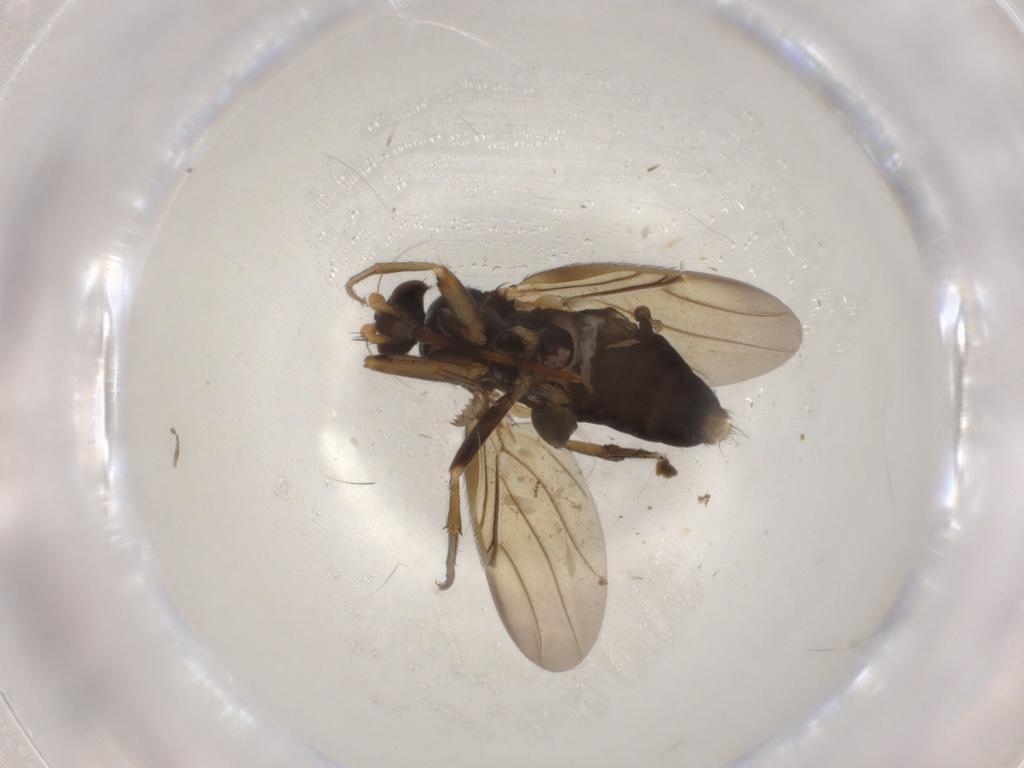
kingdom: Animalia
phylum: Arthropoda
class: Insecta
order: Diptera
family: Phoridae
